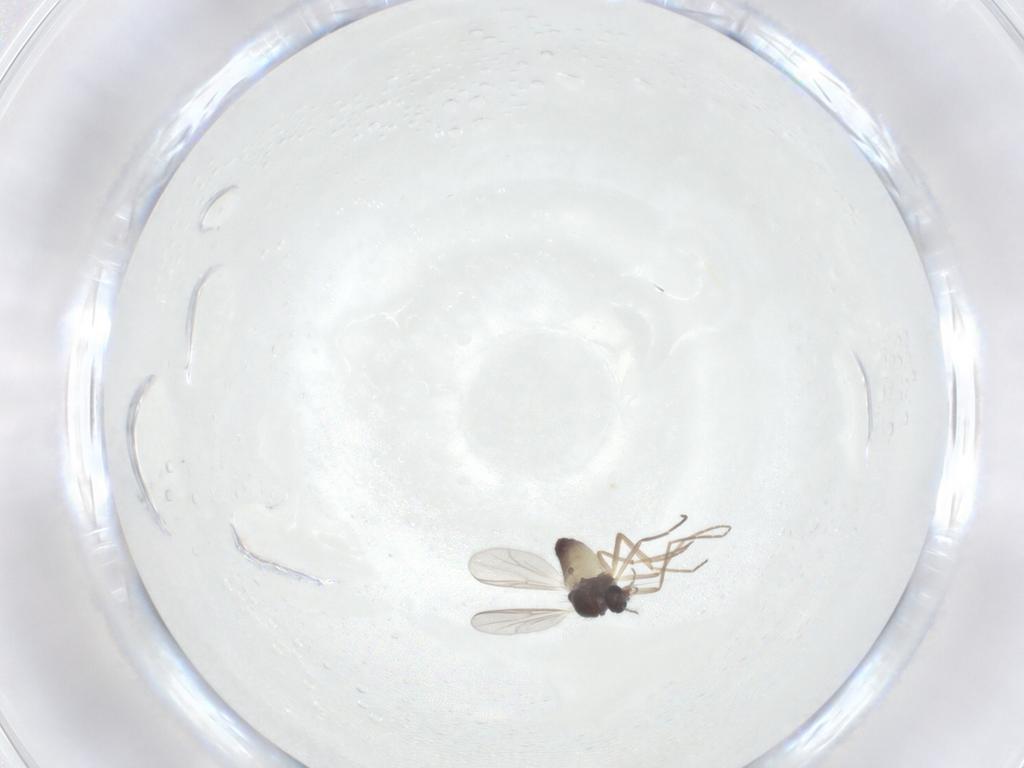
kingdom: Animalia
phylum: Arthropoda
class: Insecta
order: Diptera
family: Chironomidae
